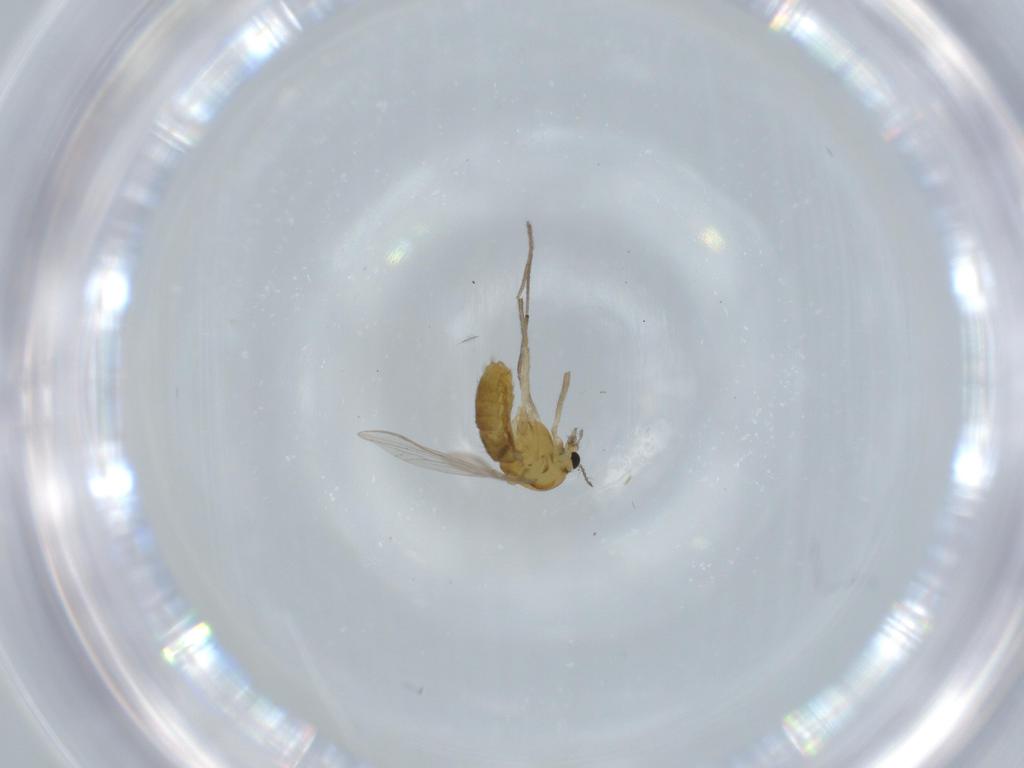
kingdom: Animalia
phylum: Arthropoda
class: Insecta
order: Diptera
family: Chironomidae
